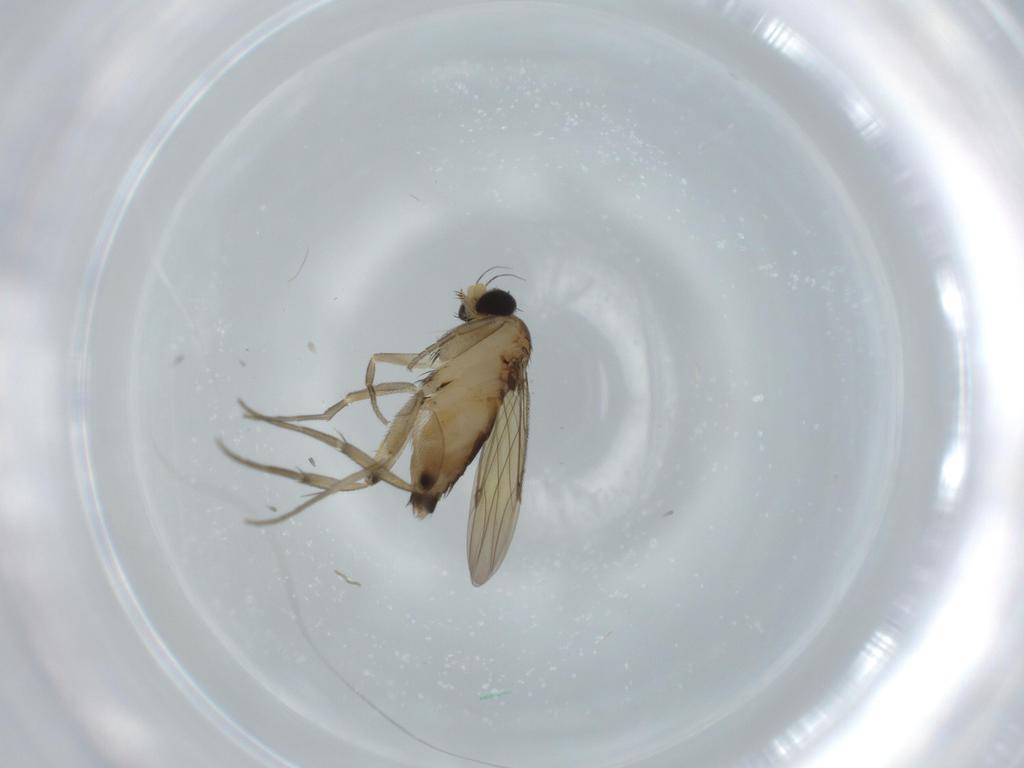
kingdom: Animalia
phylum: Arthropoda
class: Insecta
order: Diptera
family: Phoridae
